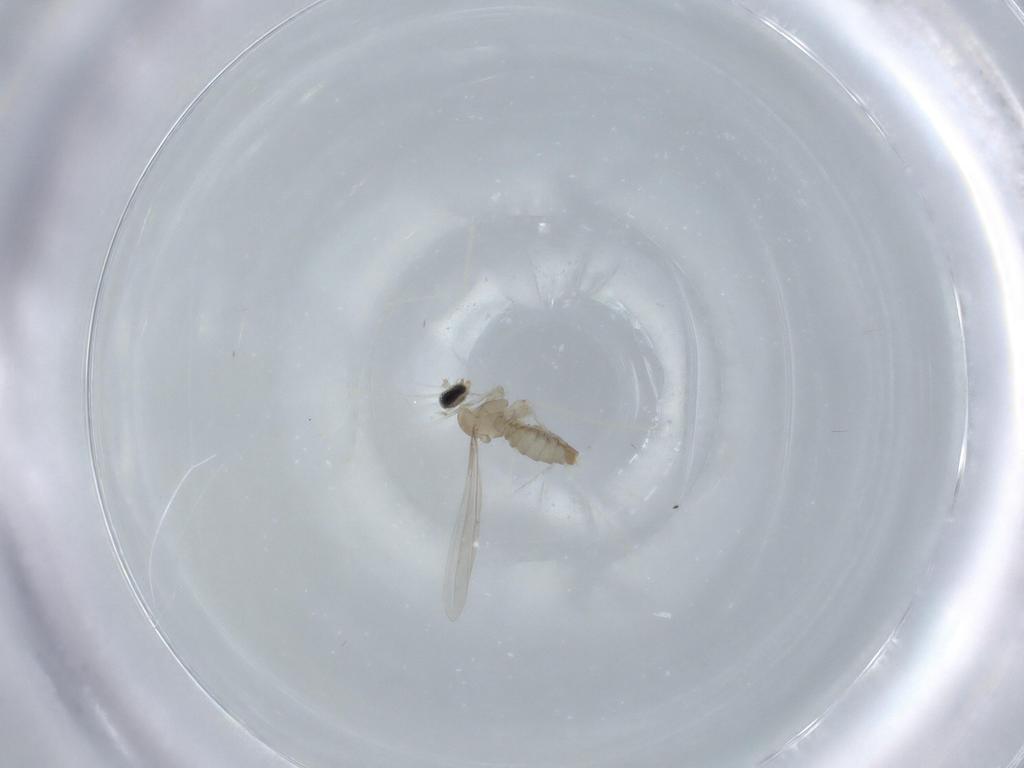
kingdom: Animalia
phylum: Arthropoda
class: Insecta
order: Diptera
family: Cecidomyiidae
